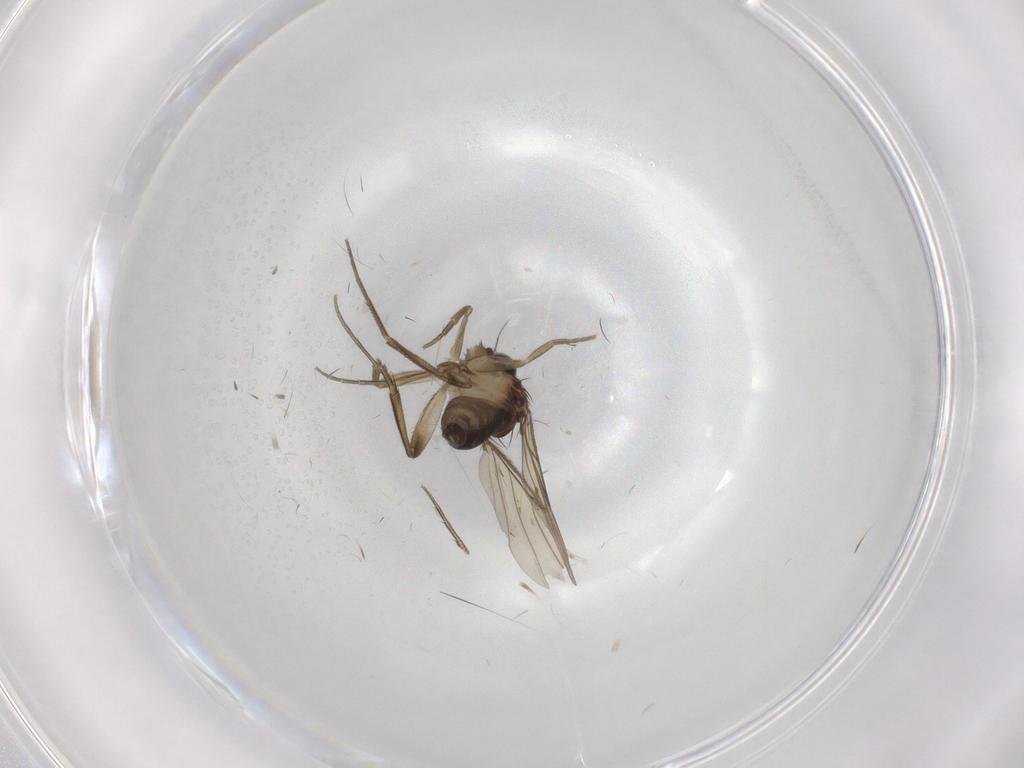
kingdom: Animalia
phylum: Arthropoda
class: Insecta
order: Diptera
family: Phoridae
